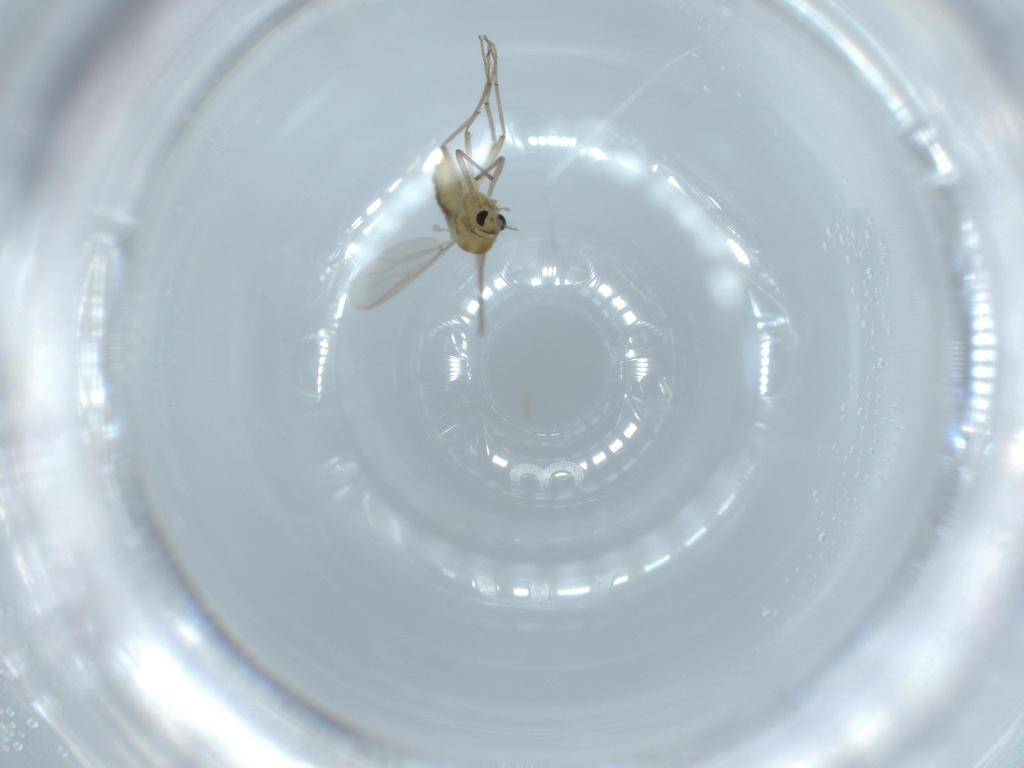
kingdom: Animalia
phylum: Arthropoda
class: Insecta
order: Diptera
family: Chironomidae
